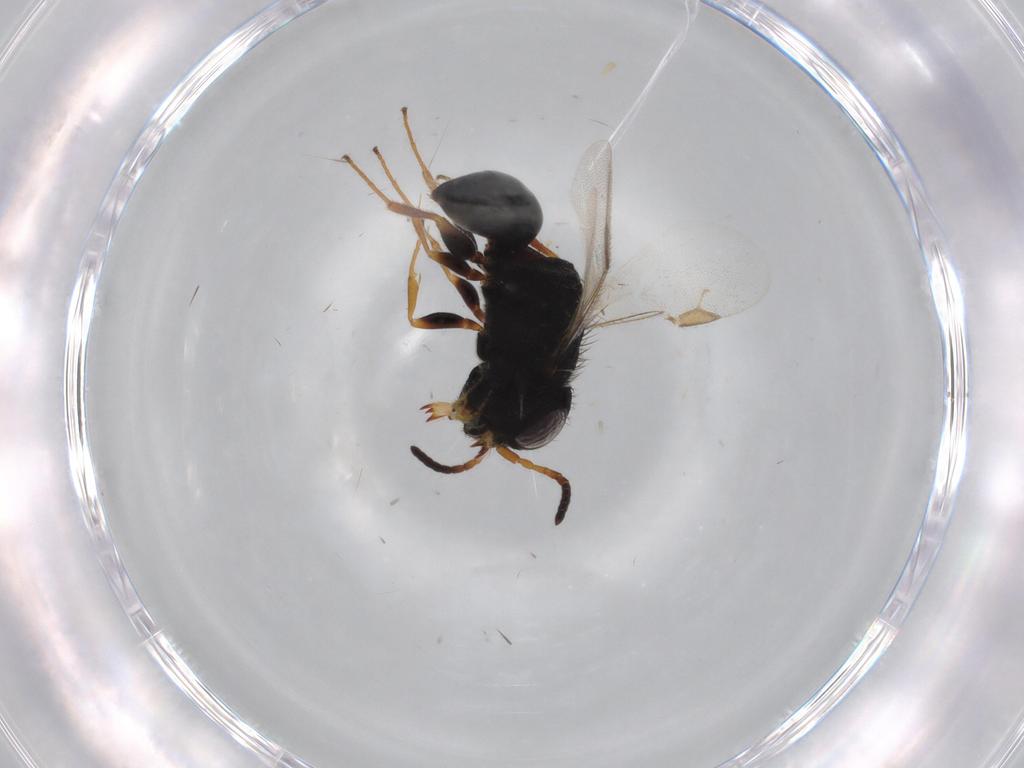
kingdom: Animalia
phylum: Arthropoda
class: Insecta
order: Hymenoptera
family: Dryinidae
